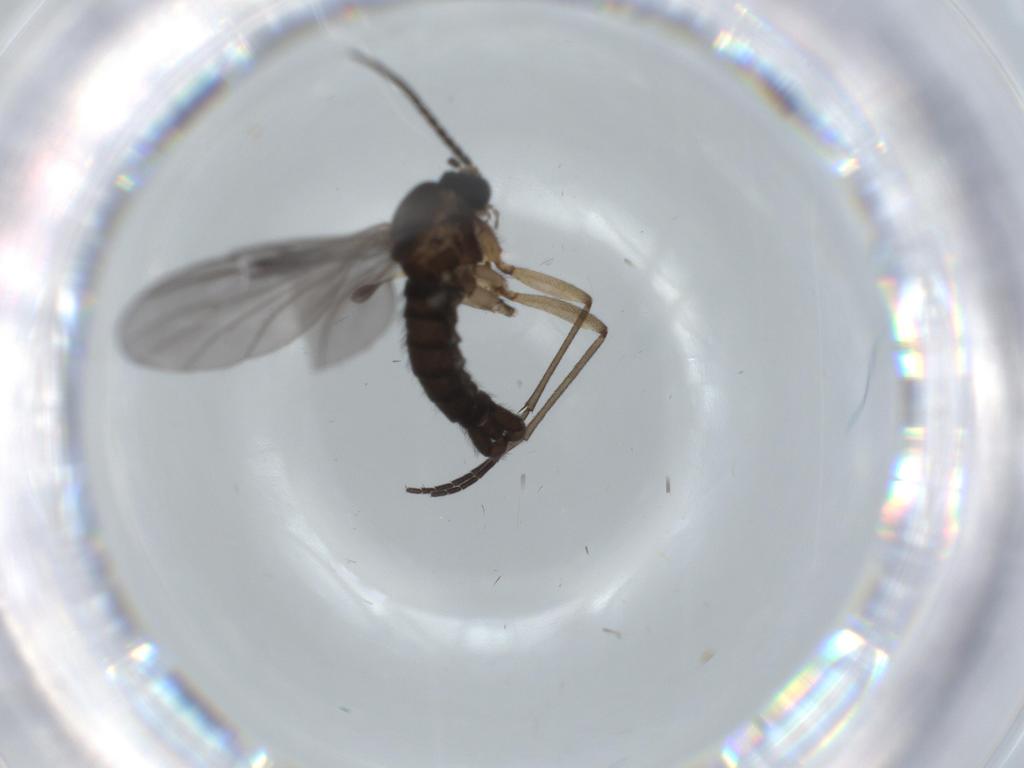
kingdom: Animalia
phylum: Arthropoda
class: Insecta
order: Diptera
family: Sciaridae
